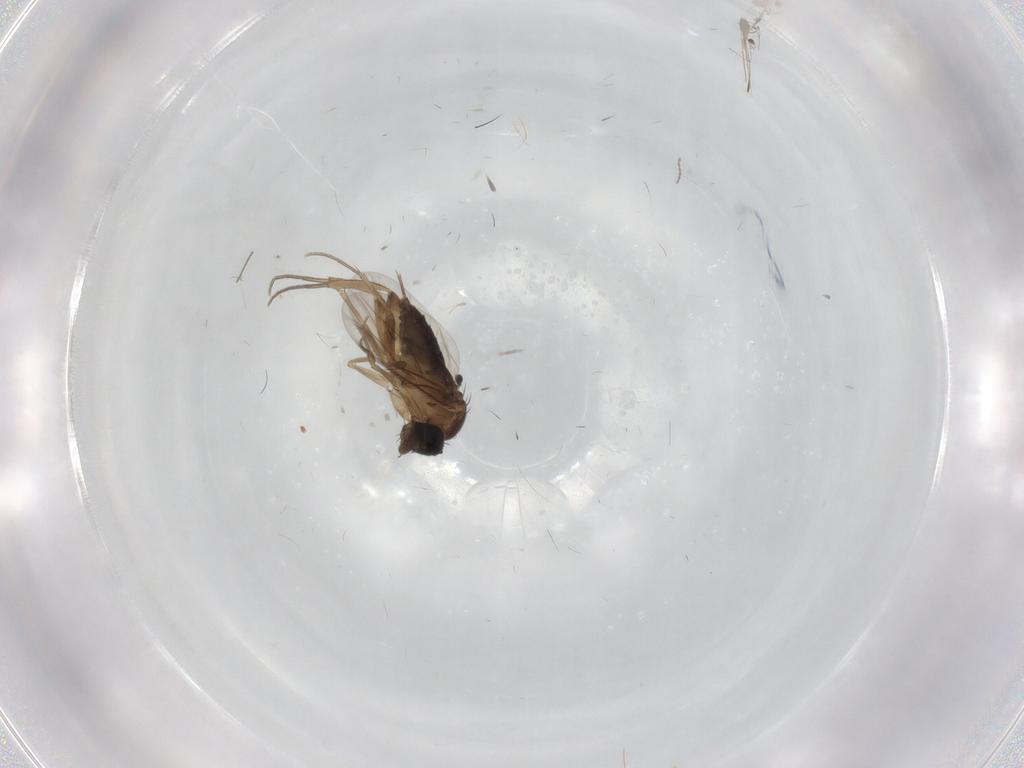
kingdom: Animalia
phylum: Arthropoda
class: Insecta
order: Diptera
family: Phoridae
